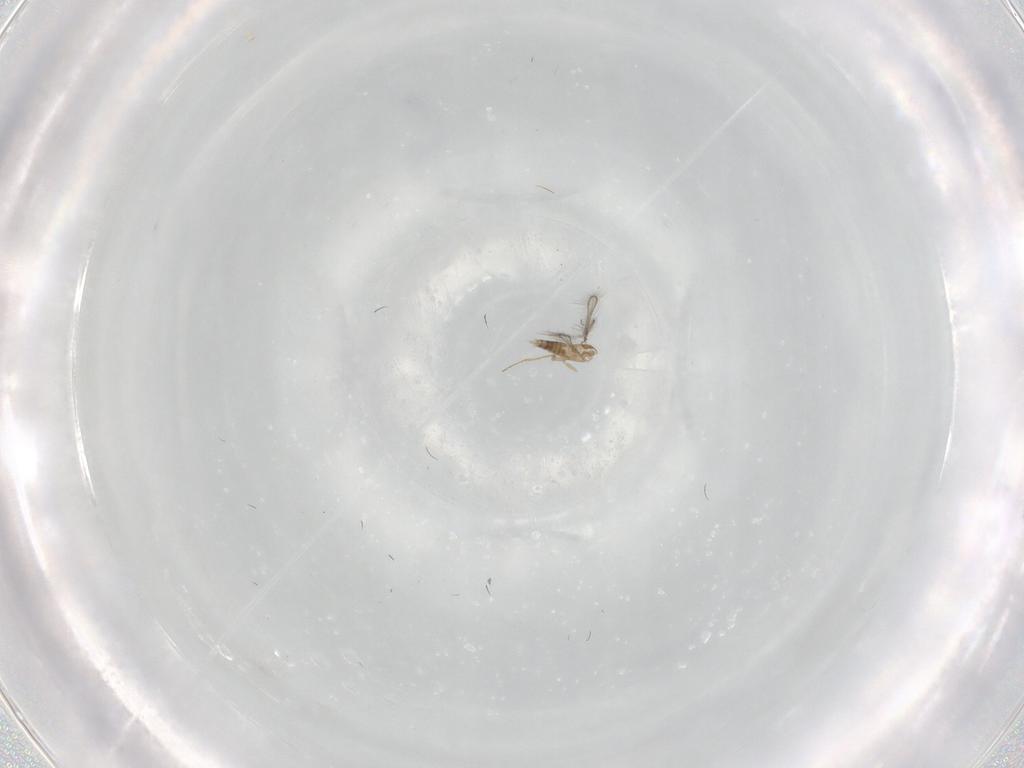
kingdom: Animalia
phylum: Arthropoda
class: Insecta
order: Hymenoptera
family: Mymaridae
